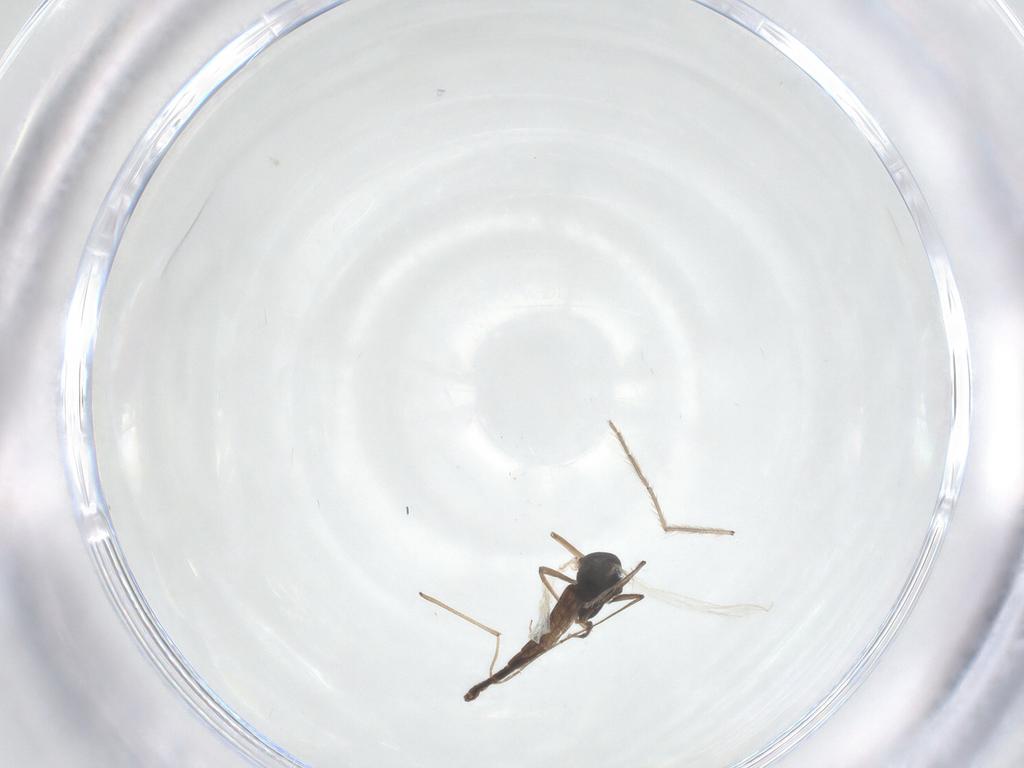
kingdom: Animalia
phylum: Arthropoda
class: Insecta
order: Diptera
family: Chironomidae
